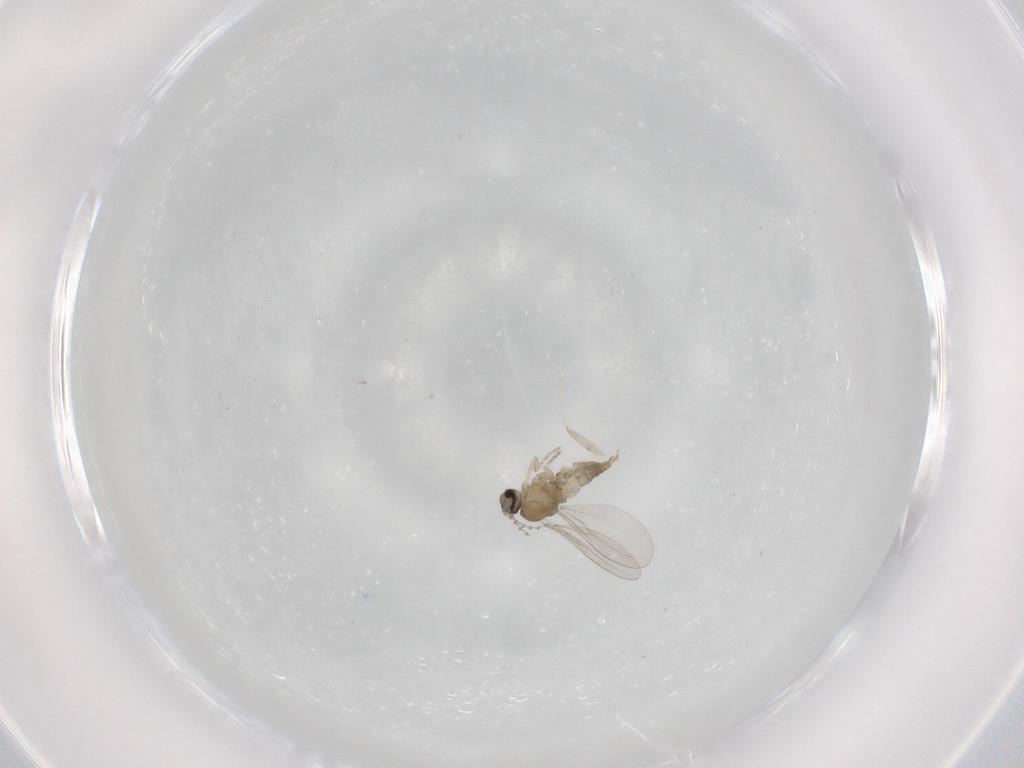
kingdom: Animalia
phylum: Arthropoda
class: Insecta
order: Diptera
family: Cecidomyiidae
